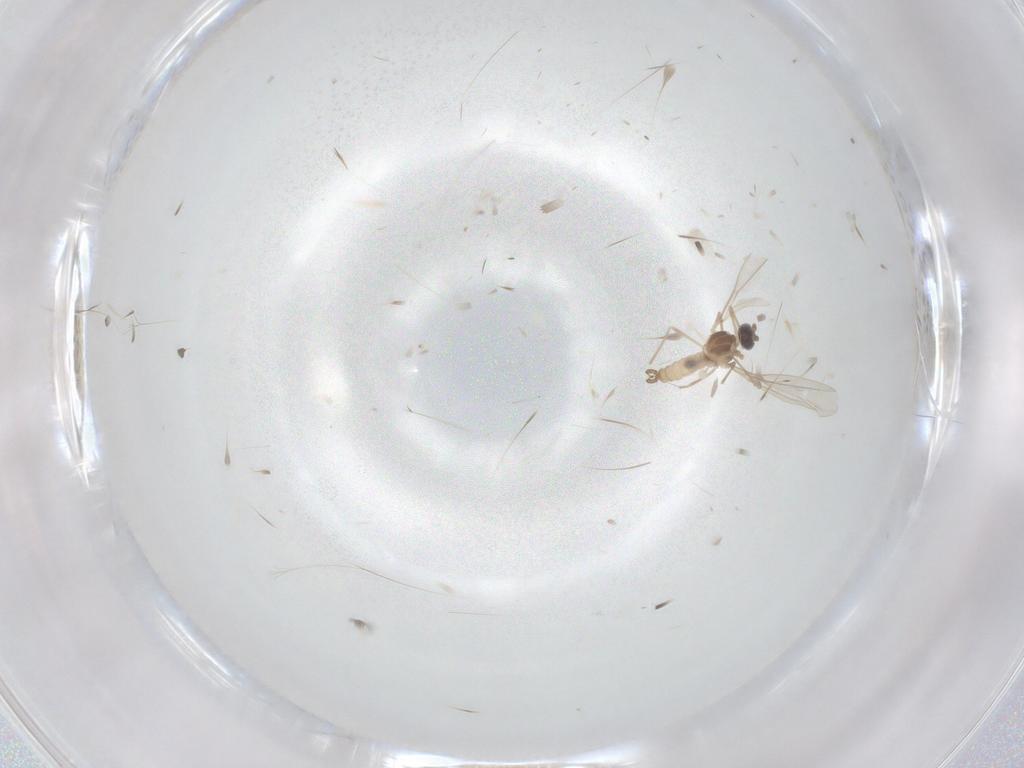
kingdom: Animalia
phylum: Arthropoda
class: Insecta
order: Diptera
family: Cecidomyiidae
